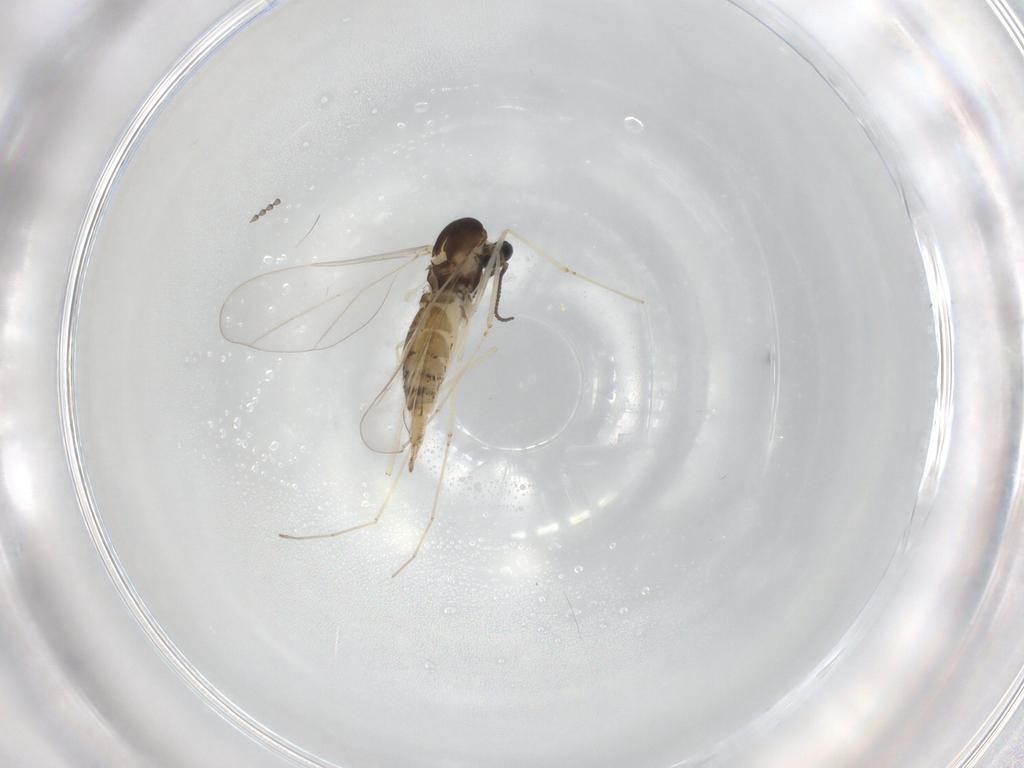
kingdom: Animalia
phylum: Arthropoda
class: Insecta
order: Diptera
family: Cecidomyiidae
